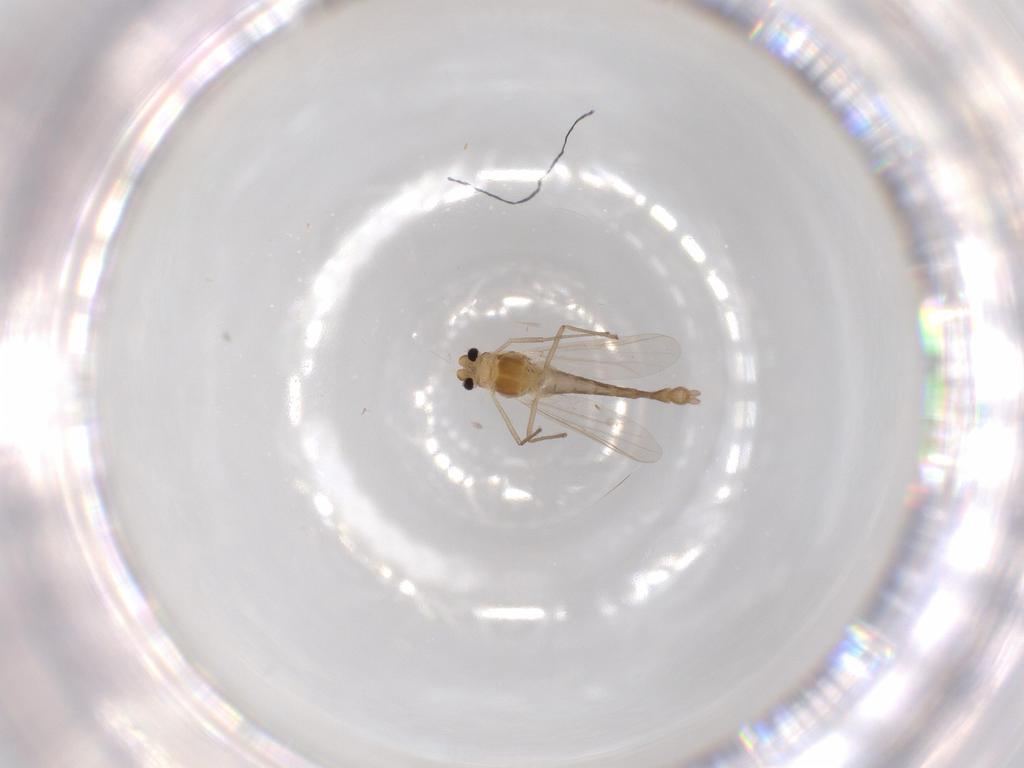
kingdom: Animalia
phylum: Arthropoda
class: Insecta
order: Diptera
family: Chironomidae
